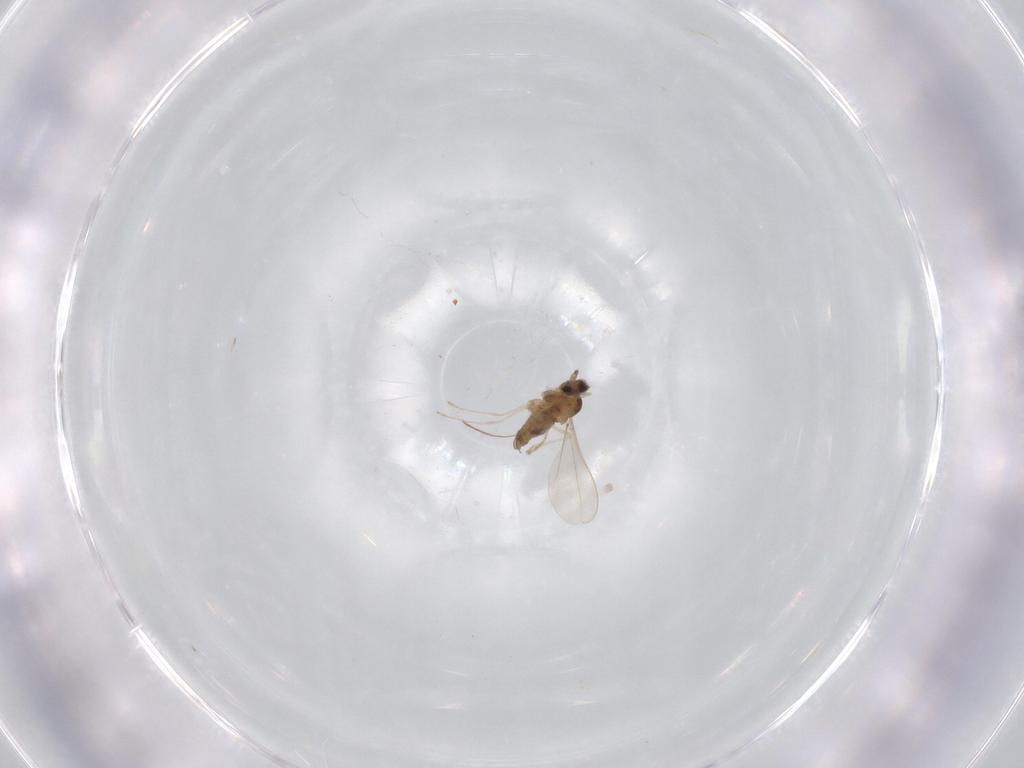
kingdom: Animalia
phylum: Arthropoda
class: Insecta
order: Diptera
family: Cecidomyiidae
